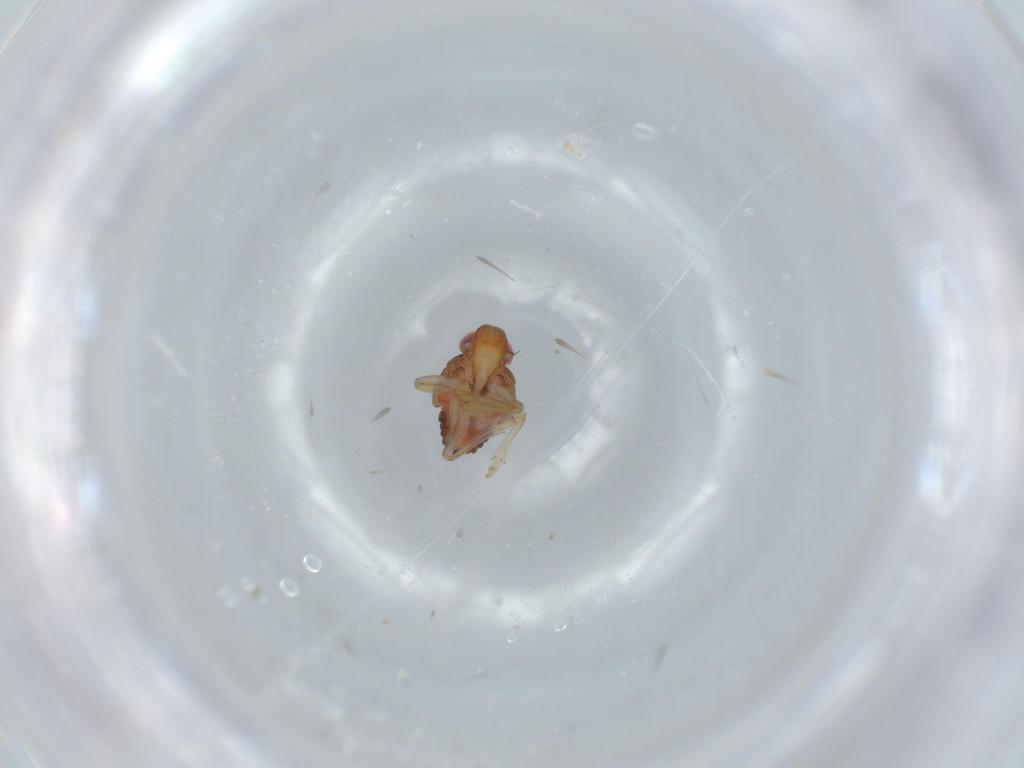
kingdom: Animalia
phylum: Arthropoda
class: Insecta
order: Hemiptera
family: Issidae
